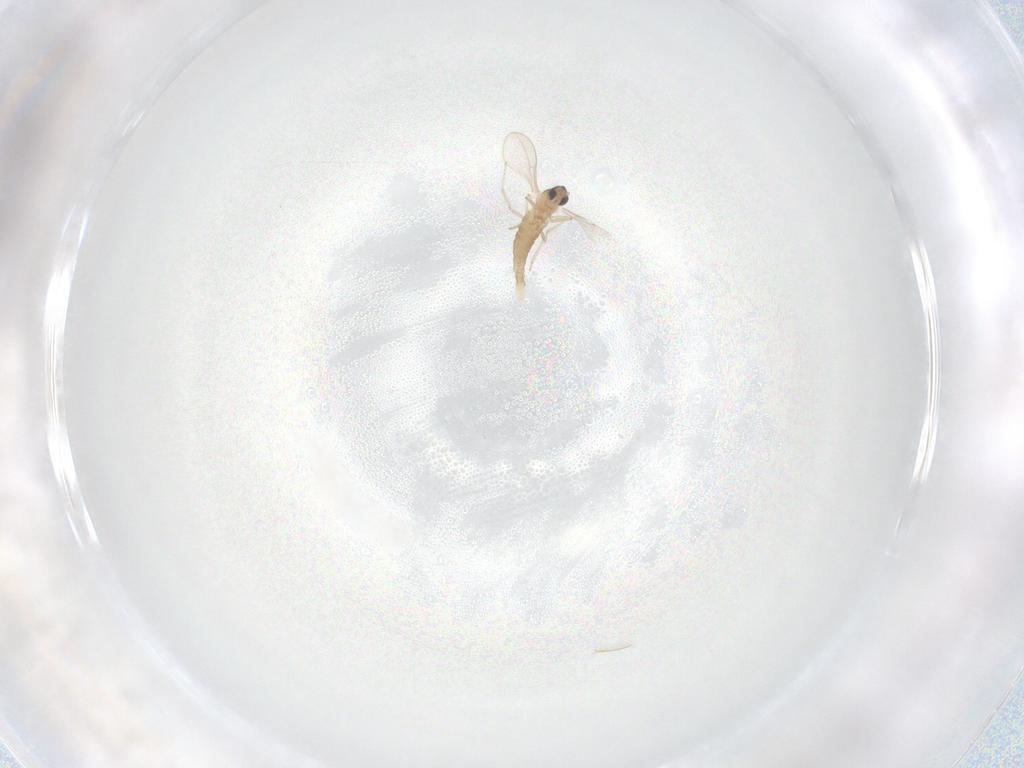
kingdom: Animalia
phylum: Arthropoda
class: Insecta
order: Diptera
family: Cecidomyiidae
